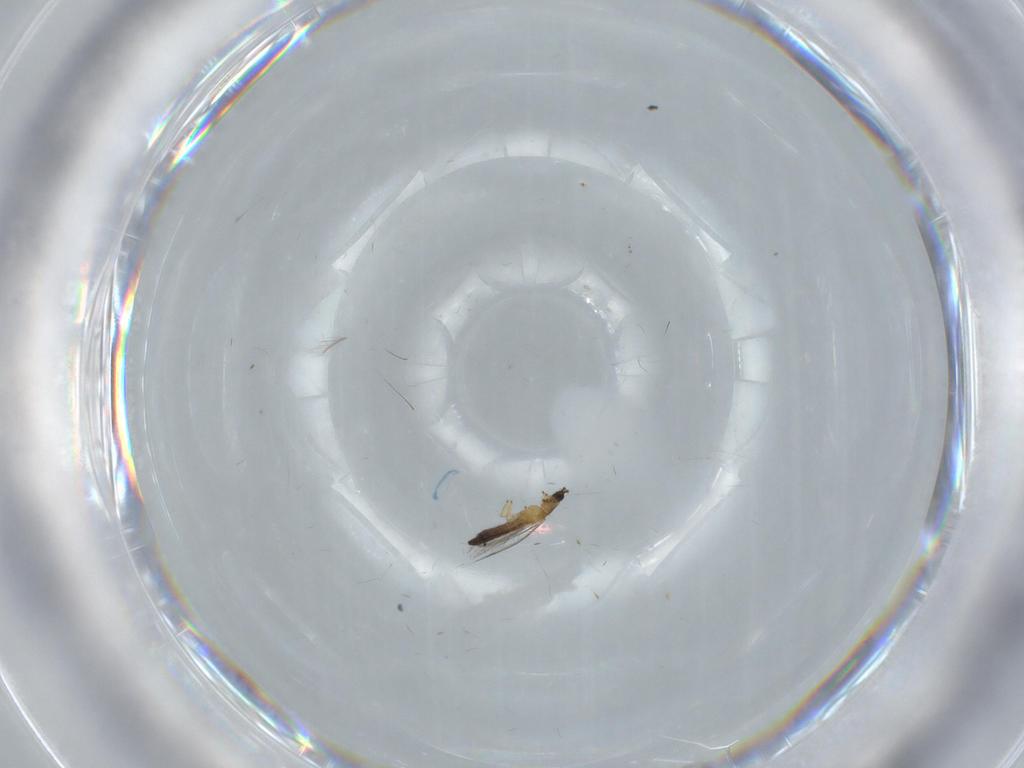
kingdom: Animalia
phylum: Arthropoda
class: Insecta
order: Thysanoptera
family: Thripidae
